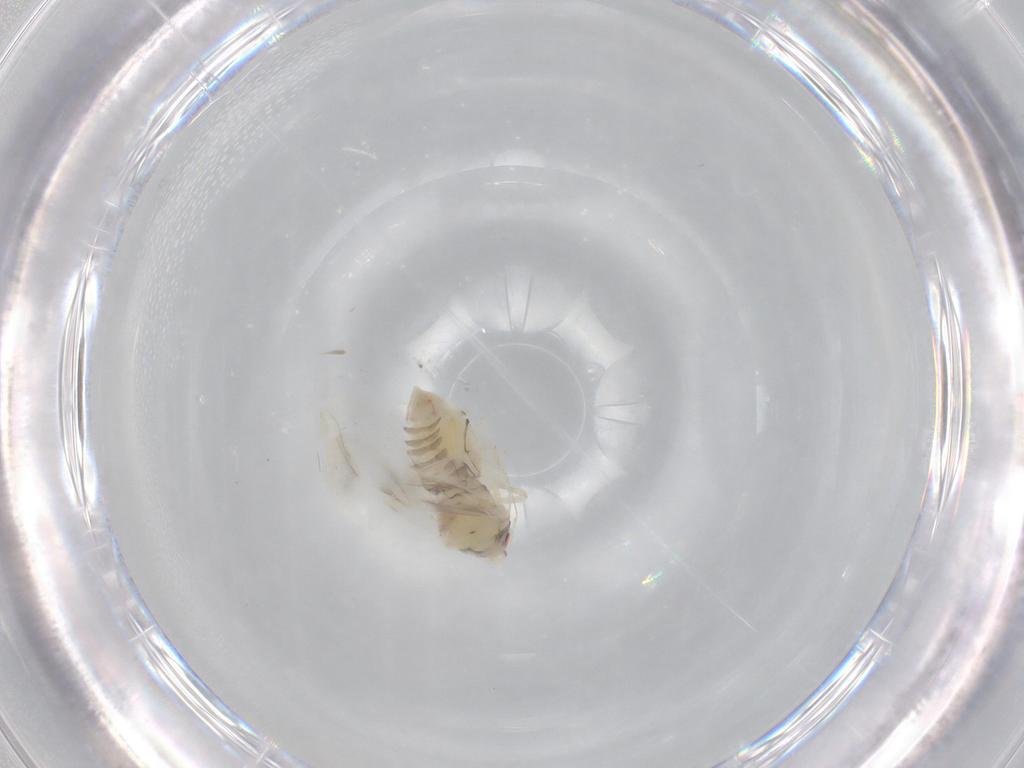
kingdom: Animalia
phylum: Arthropoda
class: Insecta
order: Hemiptera
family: Aleyrodidae
